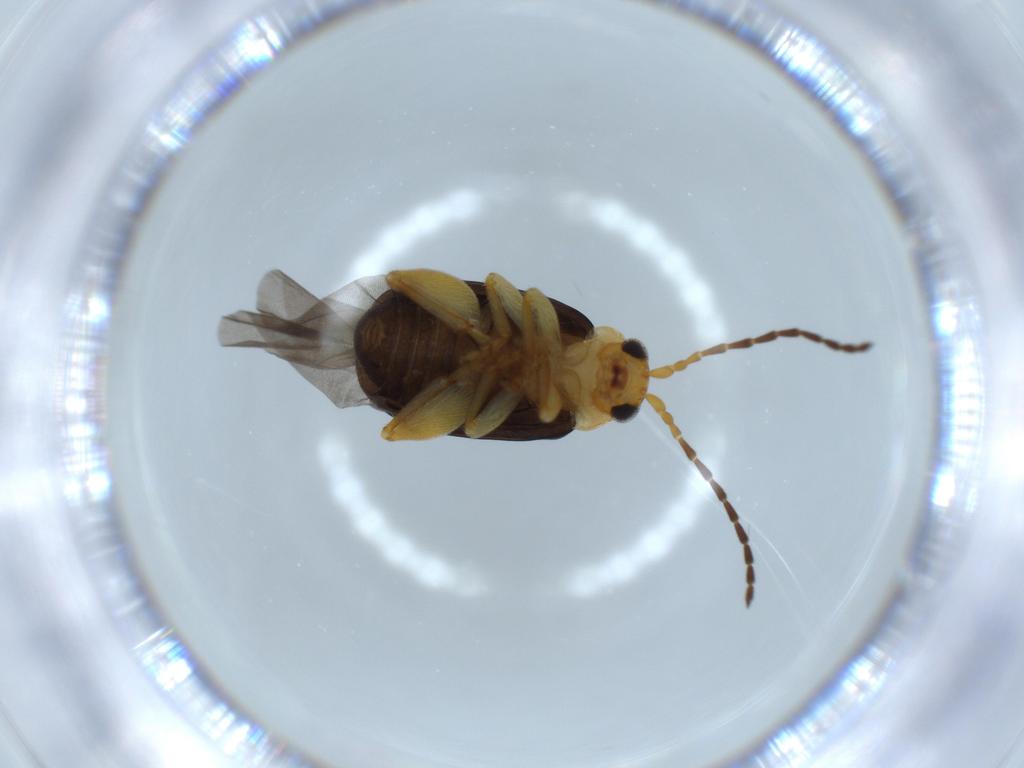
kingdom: Animalia
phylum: Arthropoda
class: Insecta
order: Coleoptera
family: Chrysomelidae
